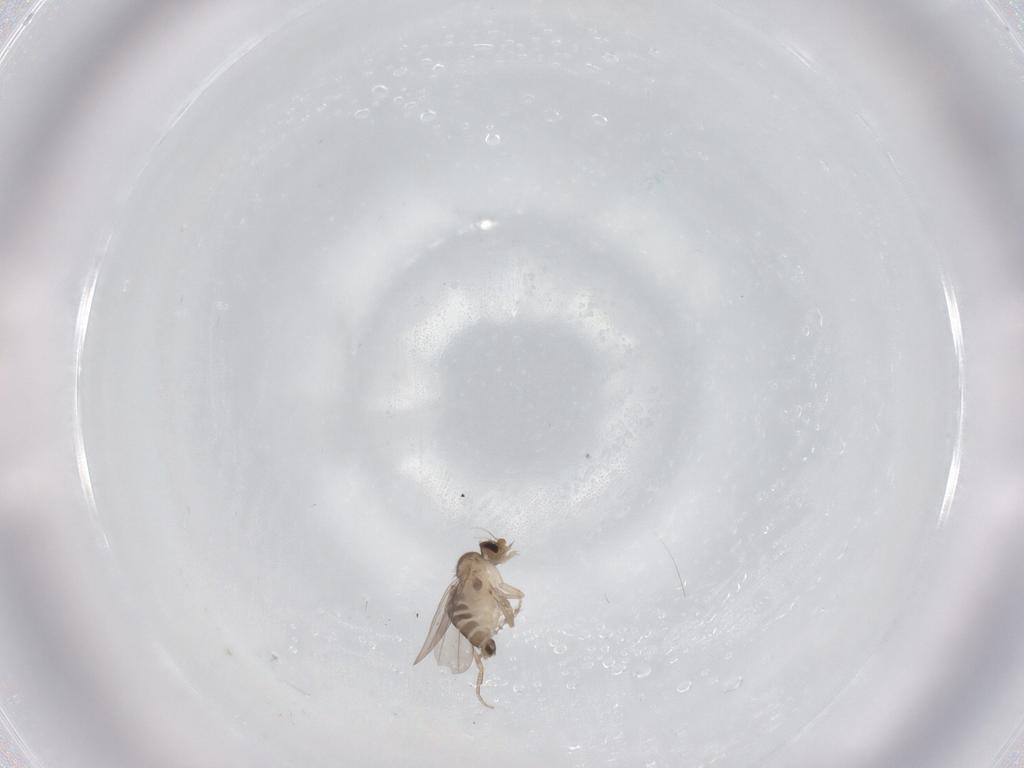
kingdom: Animalia
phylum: Arthropoda
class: Insecta
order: Diptera
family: Phoridae
